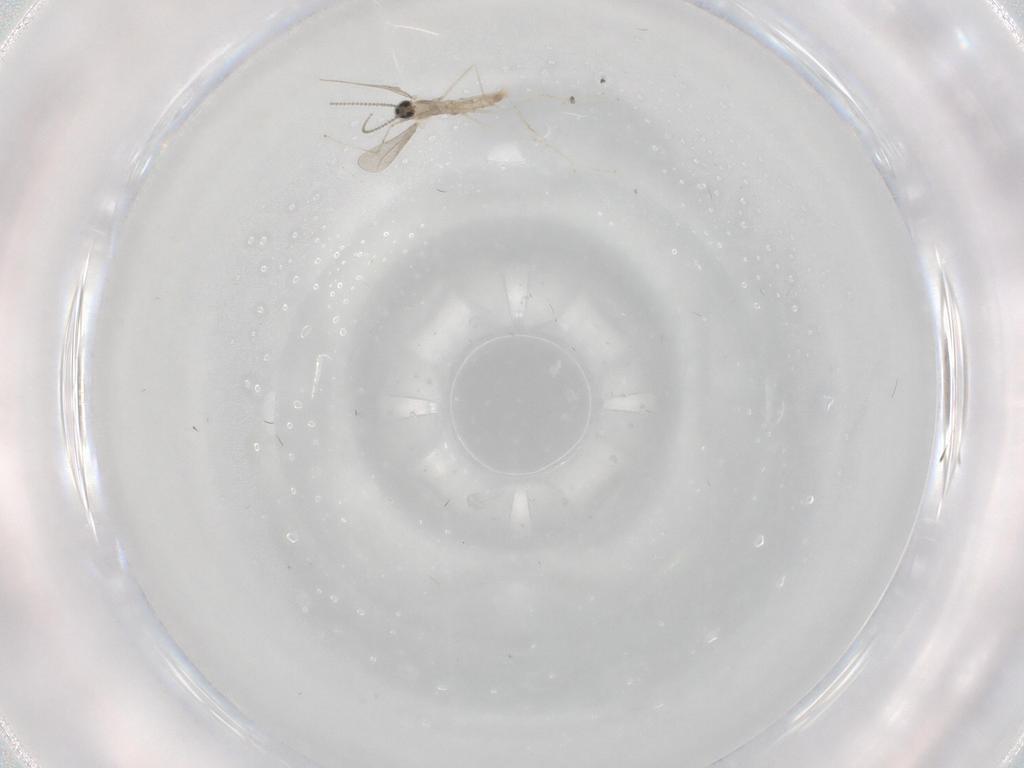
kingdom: Animalia
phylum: Arthropoda
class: Insecta
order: Diptera
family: Cecidomyiidae
